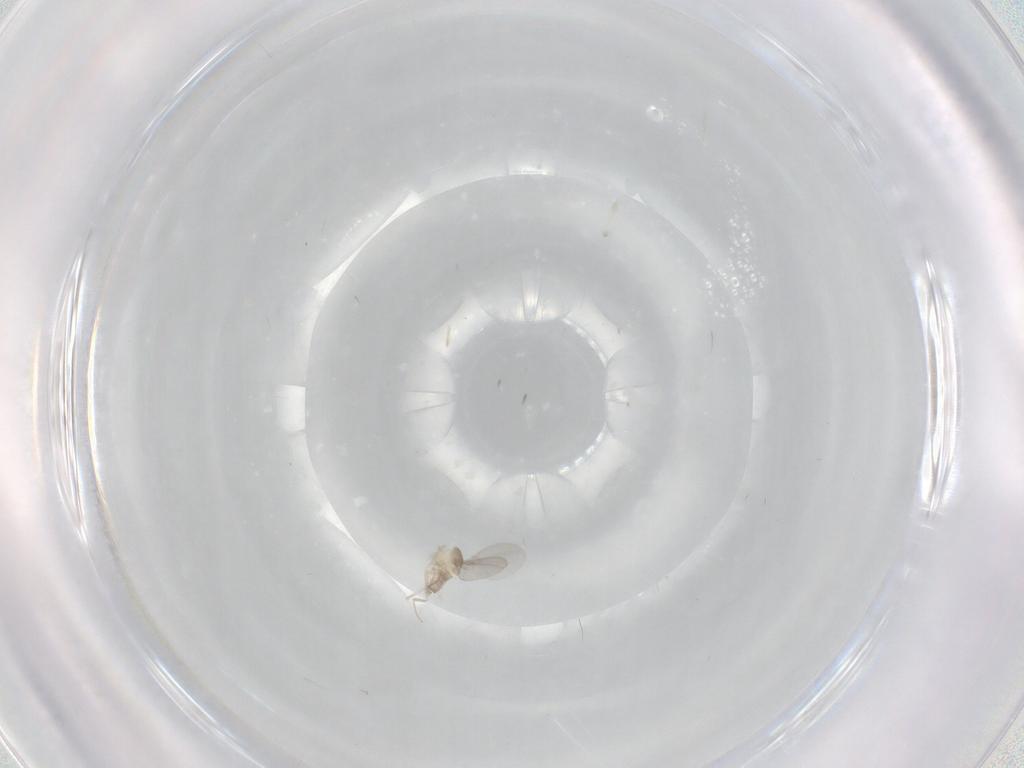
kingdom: Animalia
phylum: Arthropoda
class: Insecta
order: Diptera
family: Cecidomyiidae
